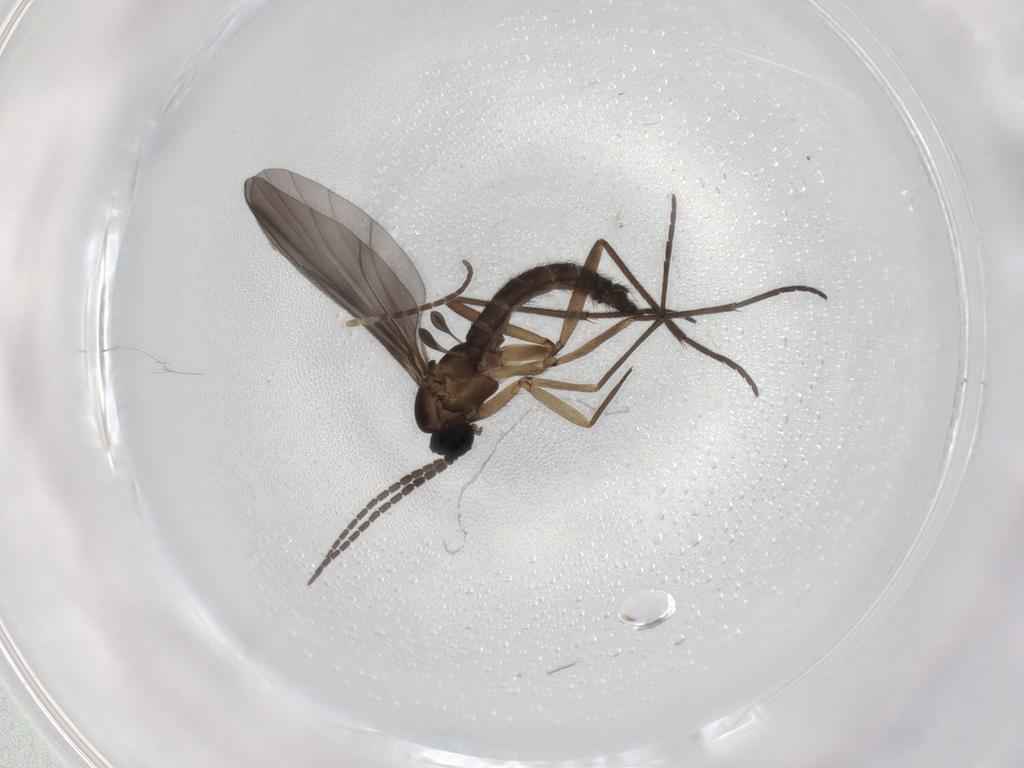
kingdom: Animalia
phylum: Arthropoda
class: Insecta
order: Diptera
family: Sciaridae
